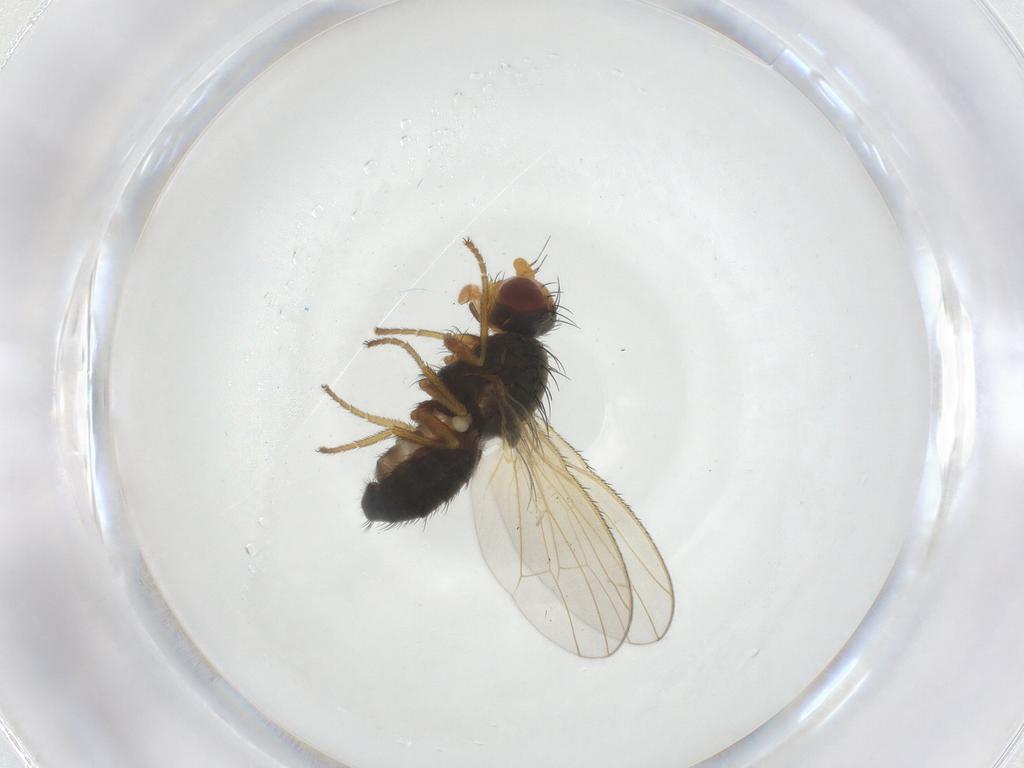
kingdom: Animalia
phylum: Arthropoda
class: Insecta
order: Diptera
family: Heleomyzidae
